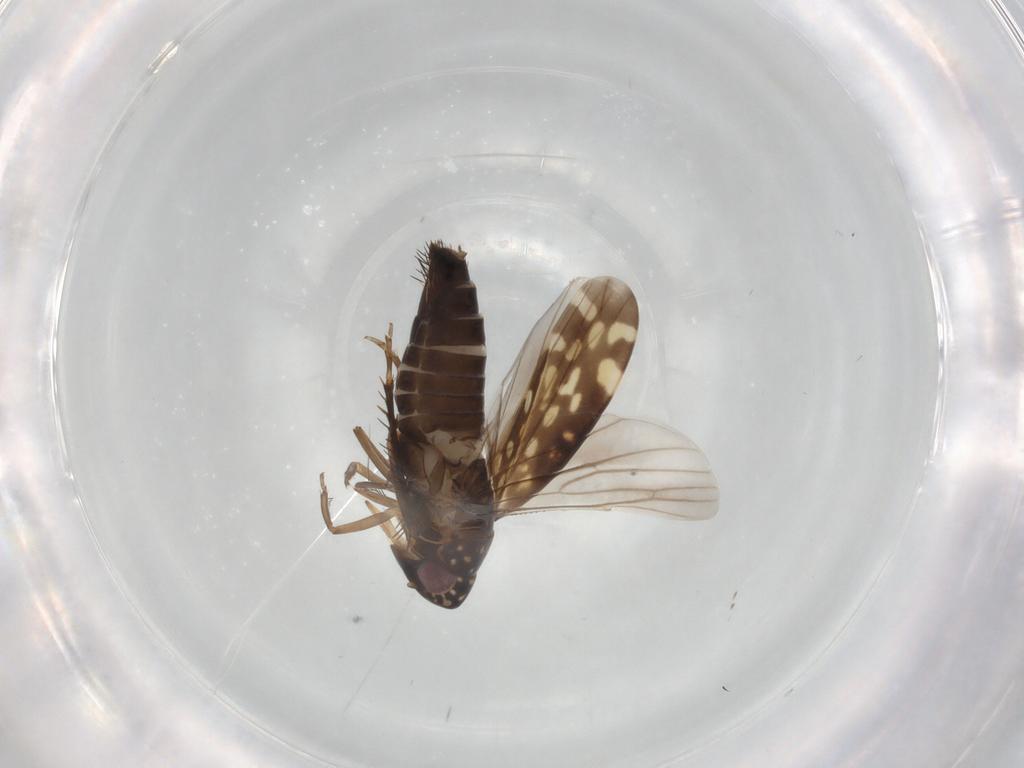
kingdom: Animalia
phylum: Arthropoda
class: Insecta
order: Hemiptera
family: Cicadellidae
